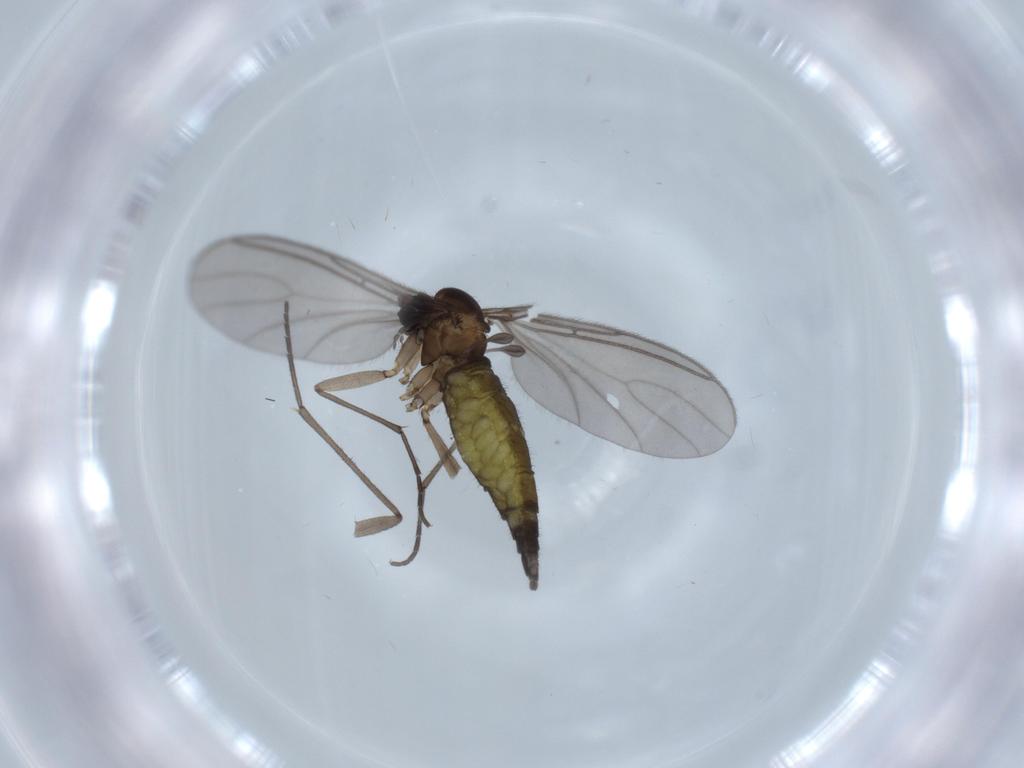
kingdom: Animalia
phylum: Arthropoda
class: Insecta
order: Diptera
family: Sciaridae
